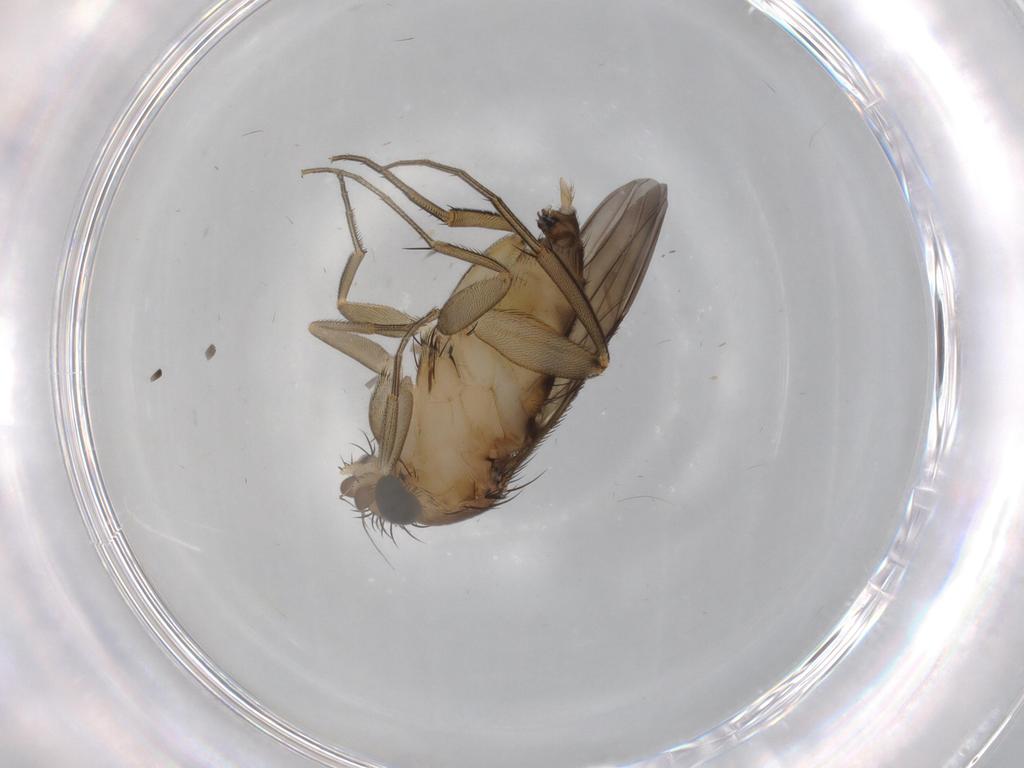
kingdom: Animalia
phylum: Arthropoda
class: Insecta
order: Diptera
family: Phoridae
